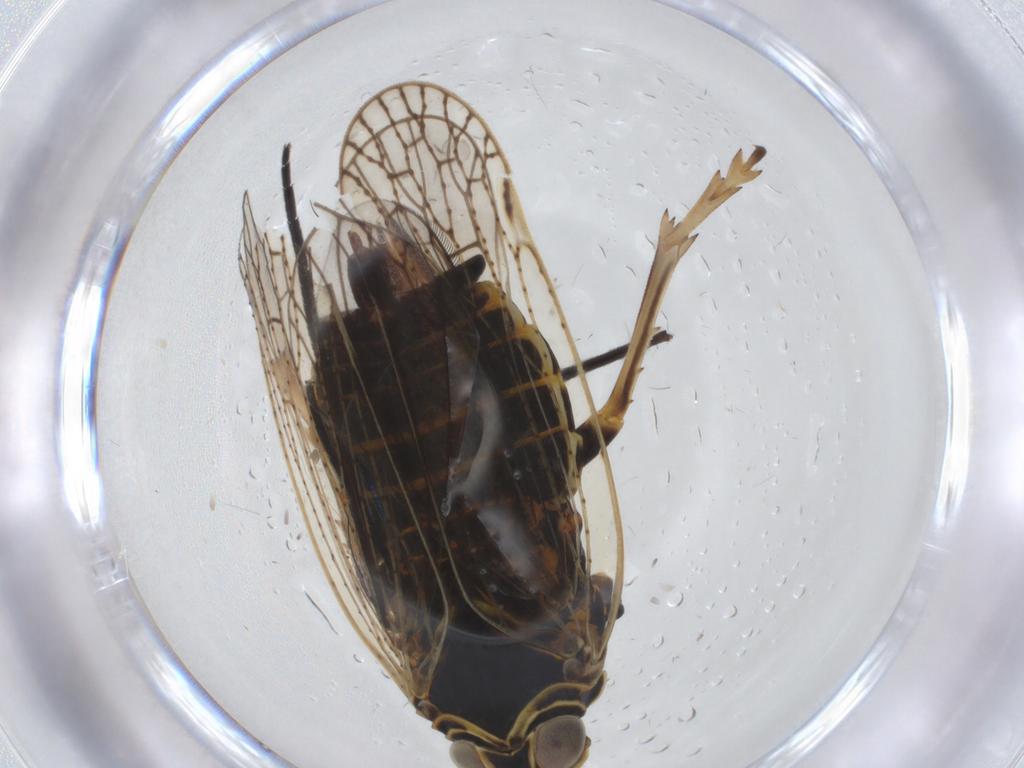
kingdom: Animalia
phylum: Arthropoda
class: Insecta
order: Hemiptera
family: Cixiidae
